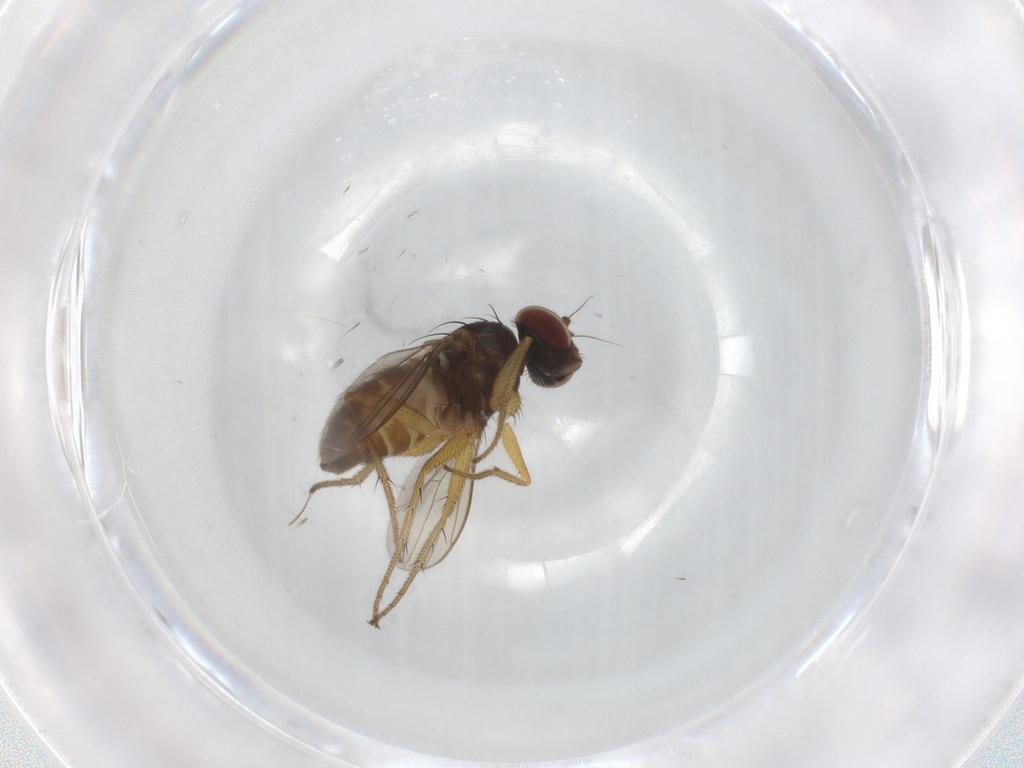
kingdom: Animalia
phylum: Arthropoda
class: Insecta
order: Diptera
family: Dolichopodidae
